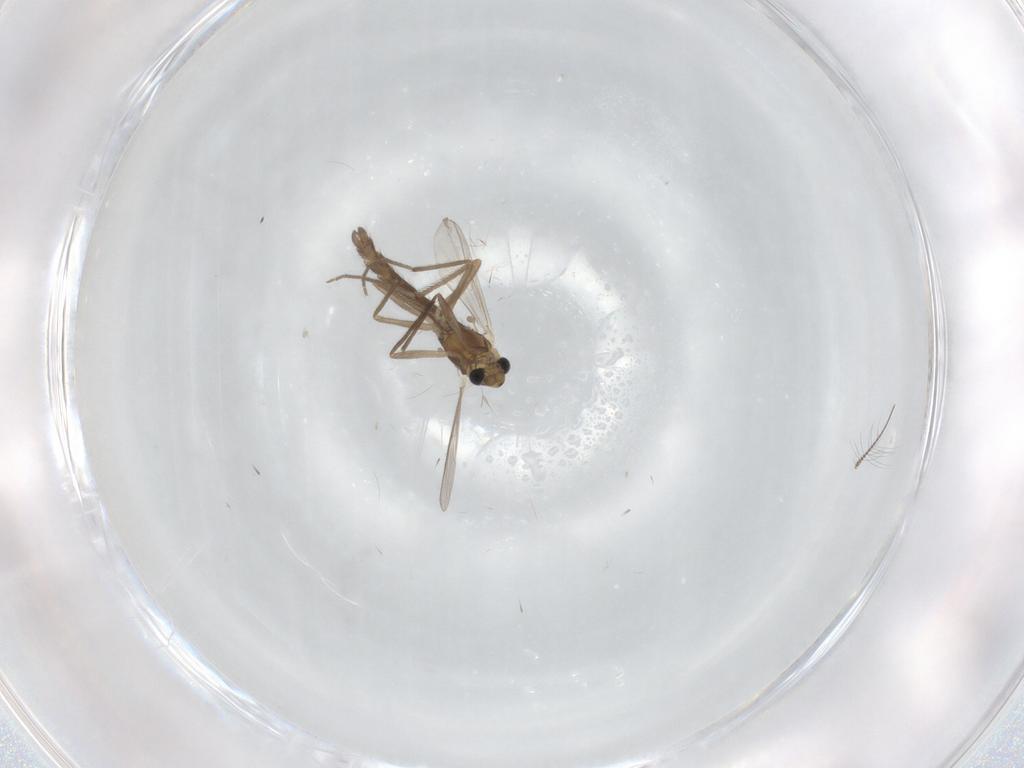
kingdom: Animalia
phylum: Arthropoda
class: Insecta
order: Diptera
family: Chironomidae
